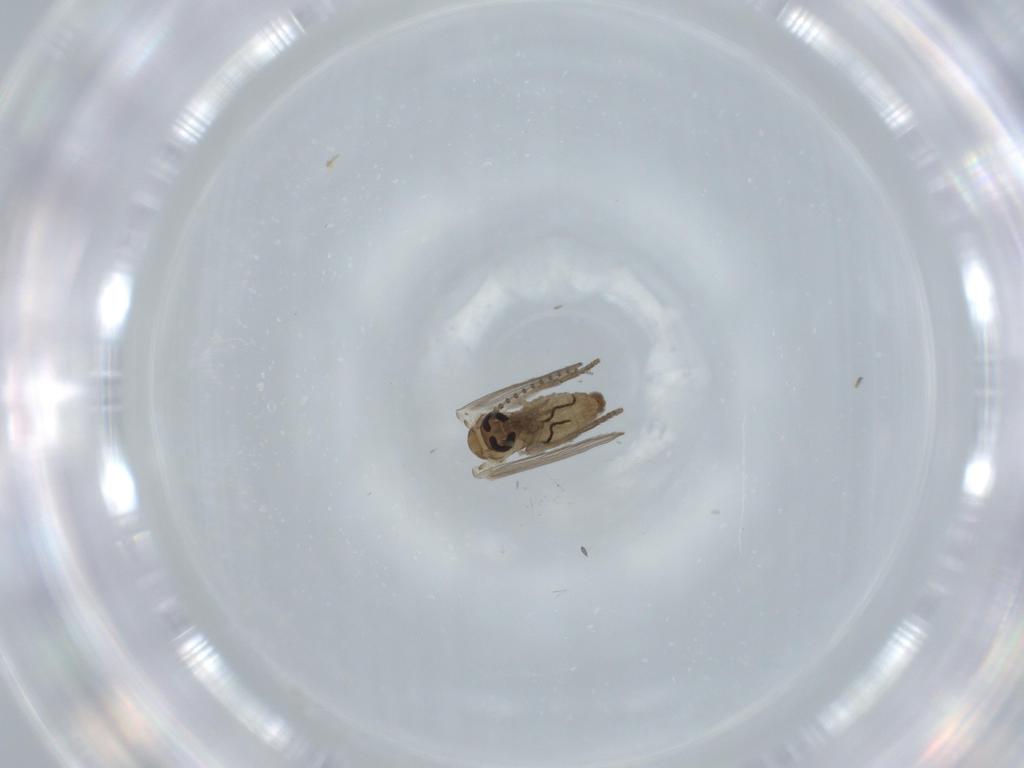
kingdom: Animalia
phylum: Arthropoda
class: Insecta
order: Diptera
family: Psychodidae
